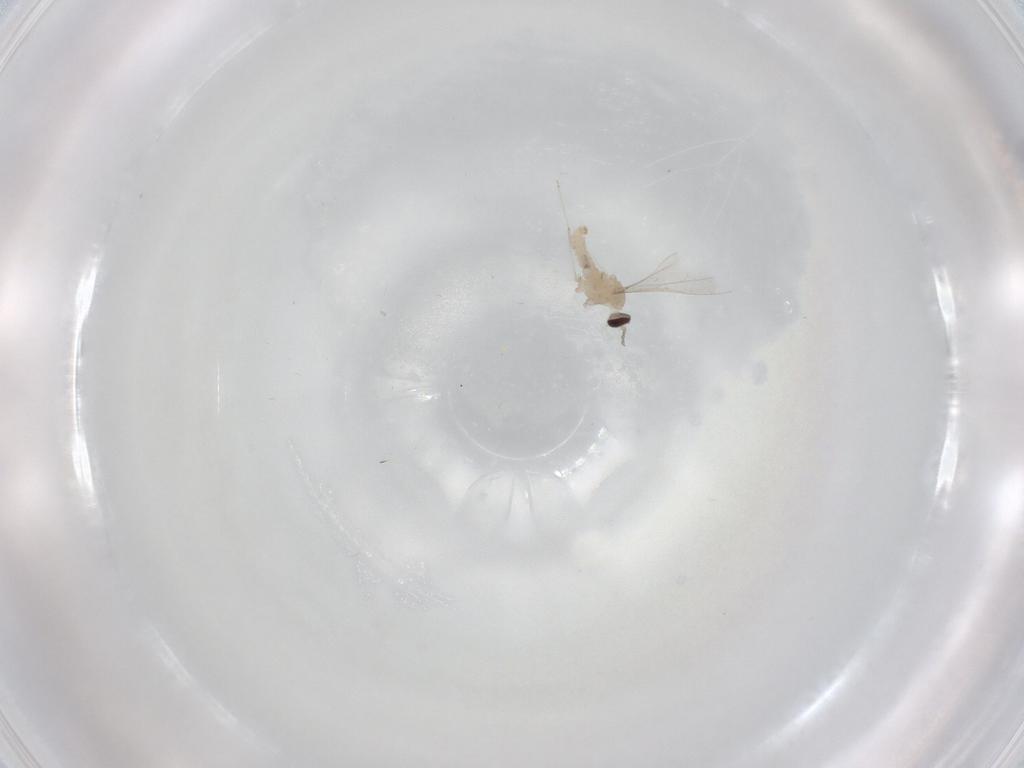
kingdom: Animalia
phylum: Arthropoda
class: Insecta
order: Diptera
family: Cecidomyiidae
